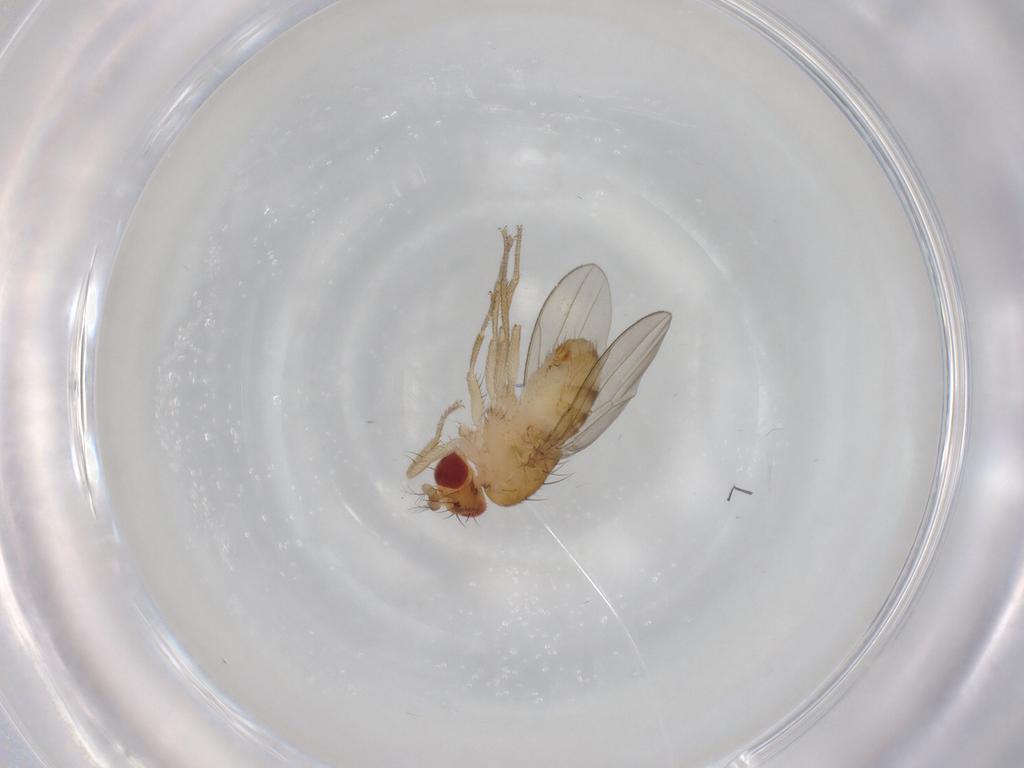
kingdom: Animalia
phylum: Arthropoda
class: Insecta
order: Diptera
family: Drosophilidae
